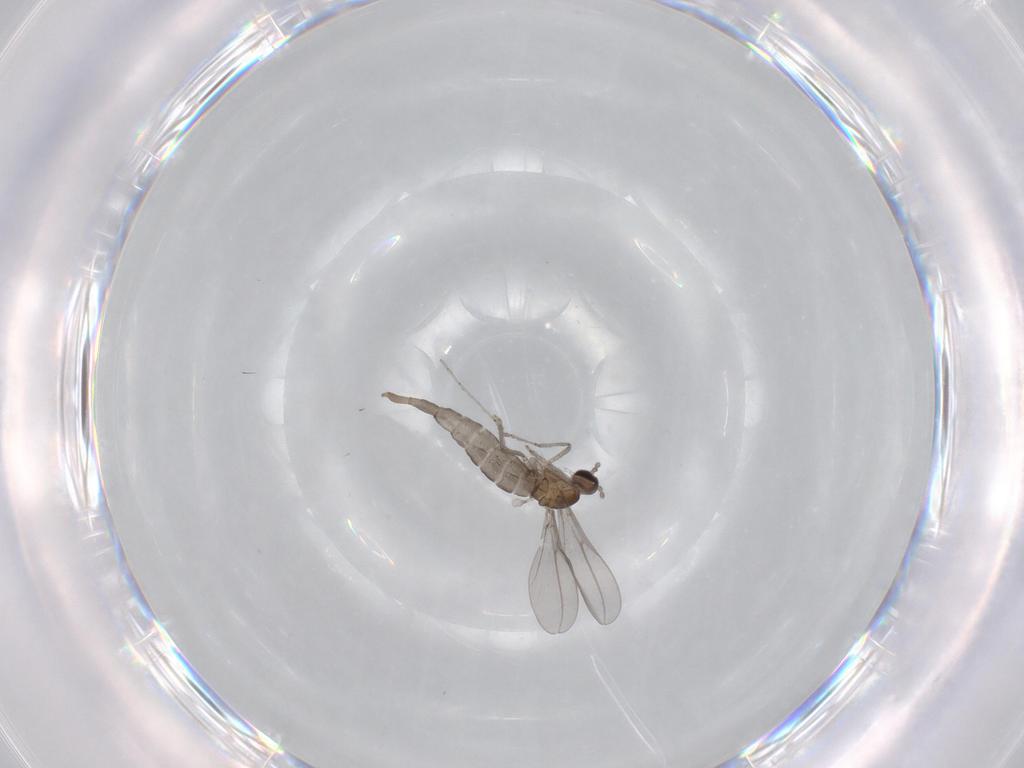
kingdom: Animalia
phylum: Arthropoda
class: Insecta
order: Diptera
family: Cecidomyiidae
